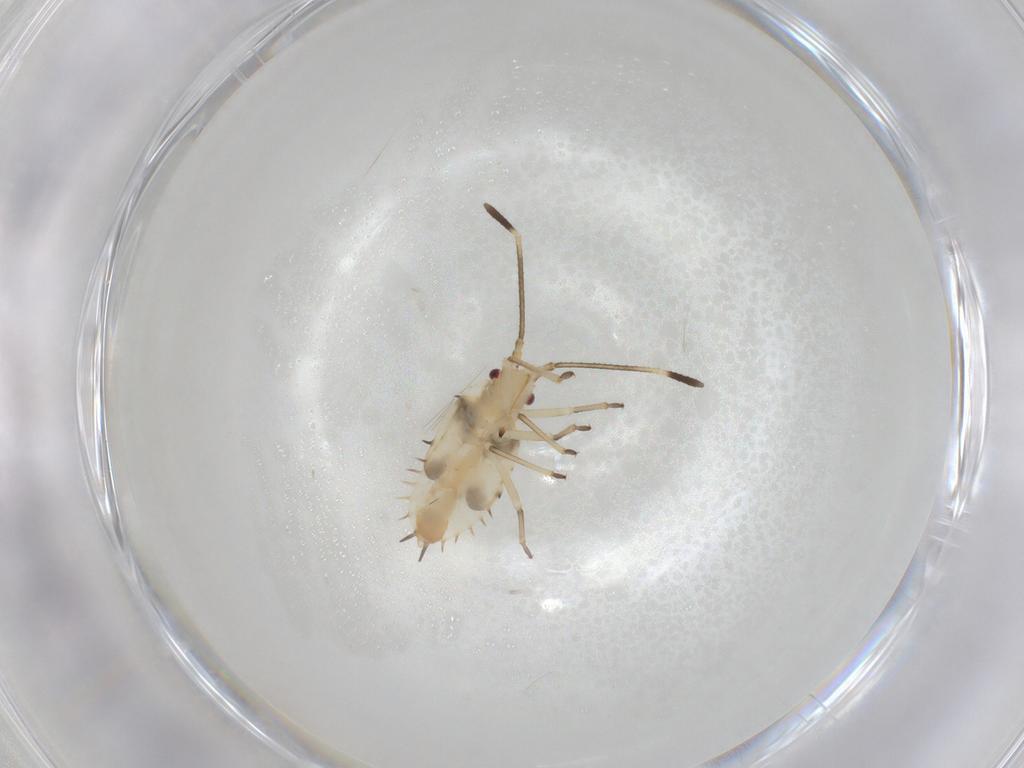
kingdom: Animalia
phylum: Arthropoda
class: Insecta
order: Hemiptera
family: Tingidae
